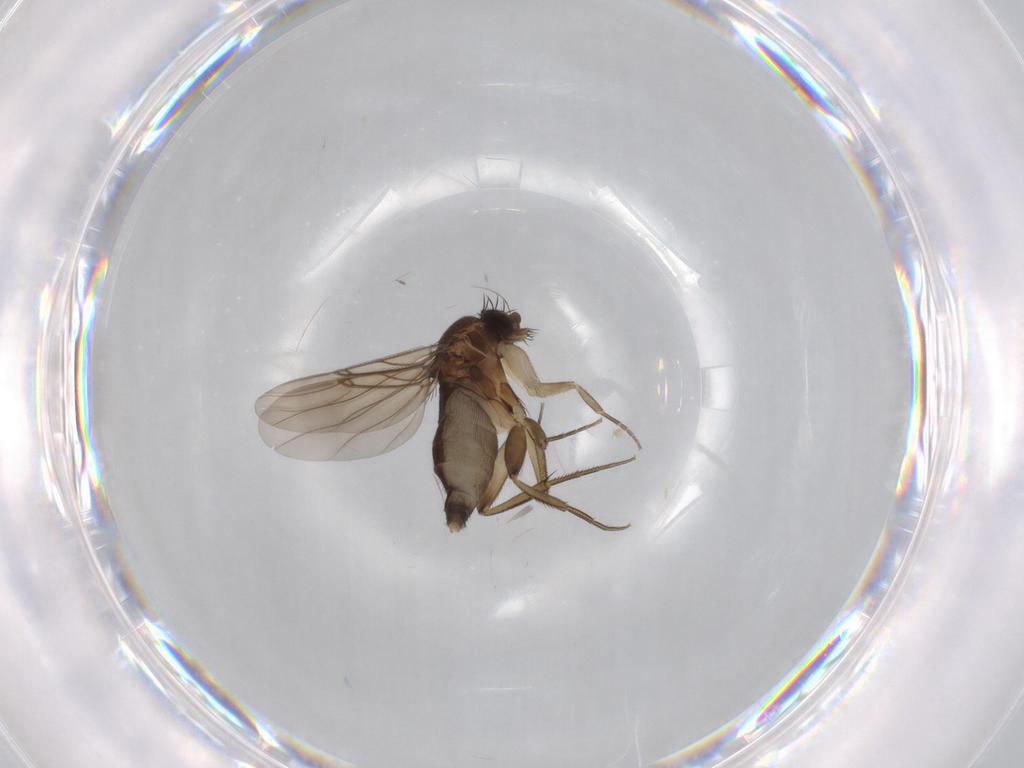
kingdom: Animalia
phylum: Arthropoda
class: Insecta
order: Diptera
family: Phoridae
